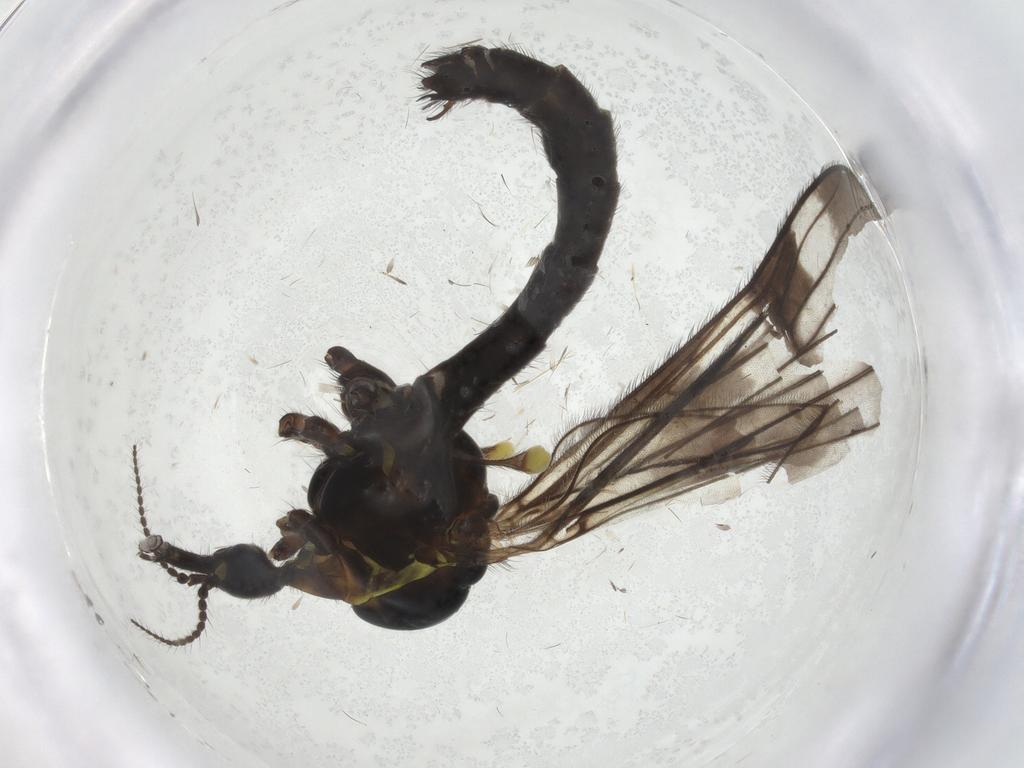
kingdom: Animalia
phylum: Arthropoda
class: Insecta
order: Diptera
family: Limoniidae
